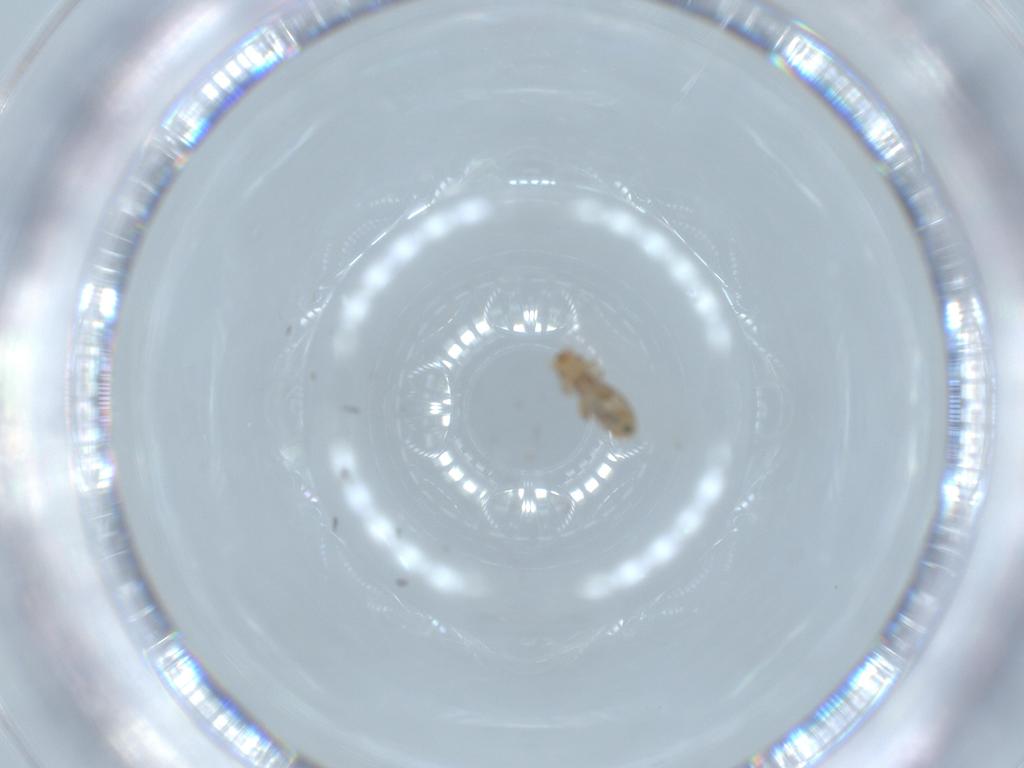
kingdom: Animalia
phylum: Arthropoda
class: Insecta
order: Psocodea
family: Liposcelididae
